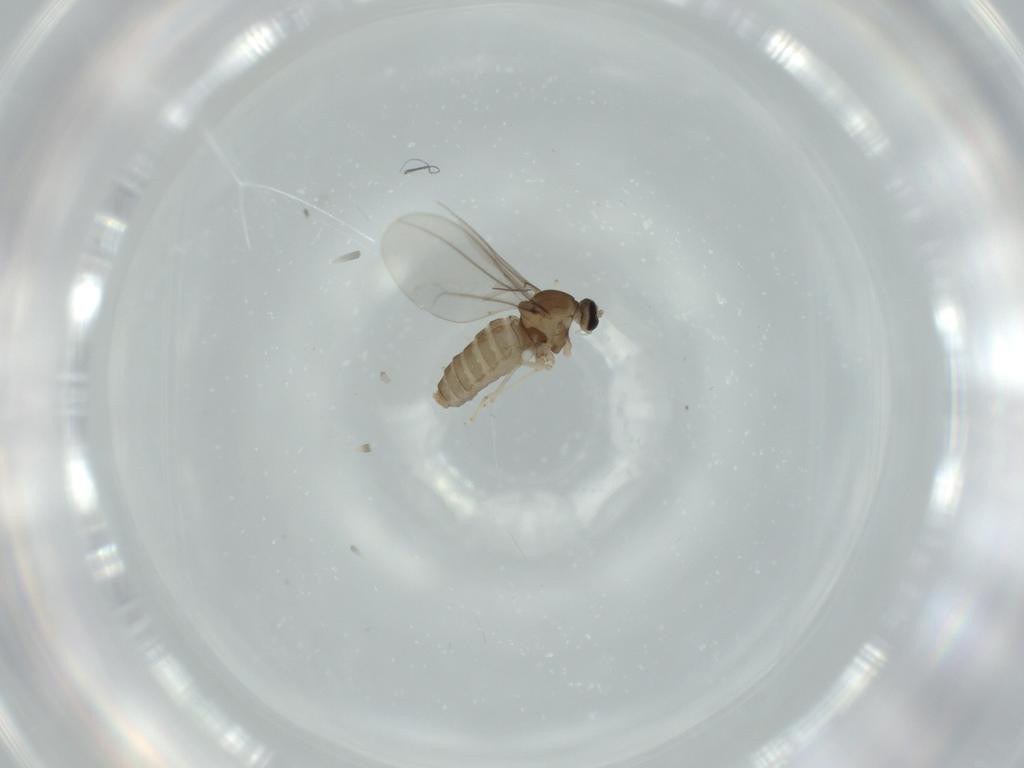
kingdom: Animalia
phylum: Arthropoda
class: Insecta
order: Diptera
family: Cecidomyiidae
